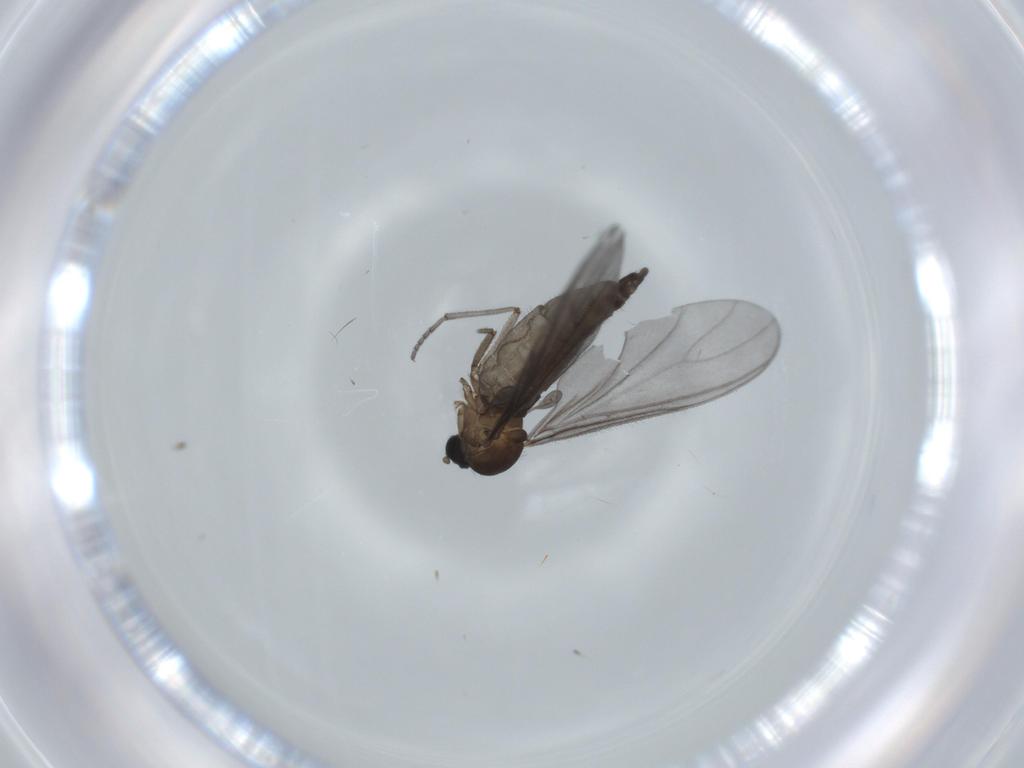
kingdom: Animalia
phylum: Arthropoda
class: Insecta
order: Diptera
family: Sciaridae
